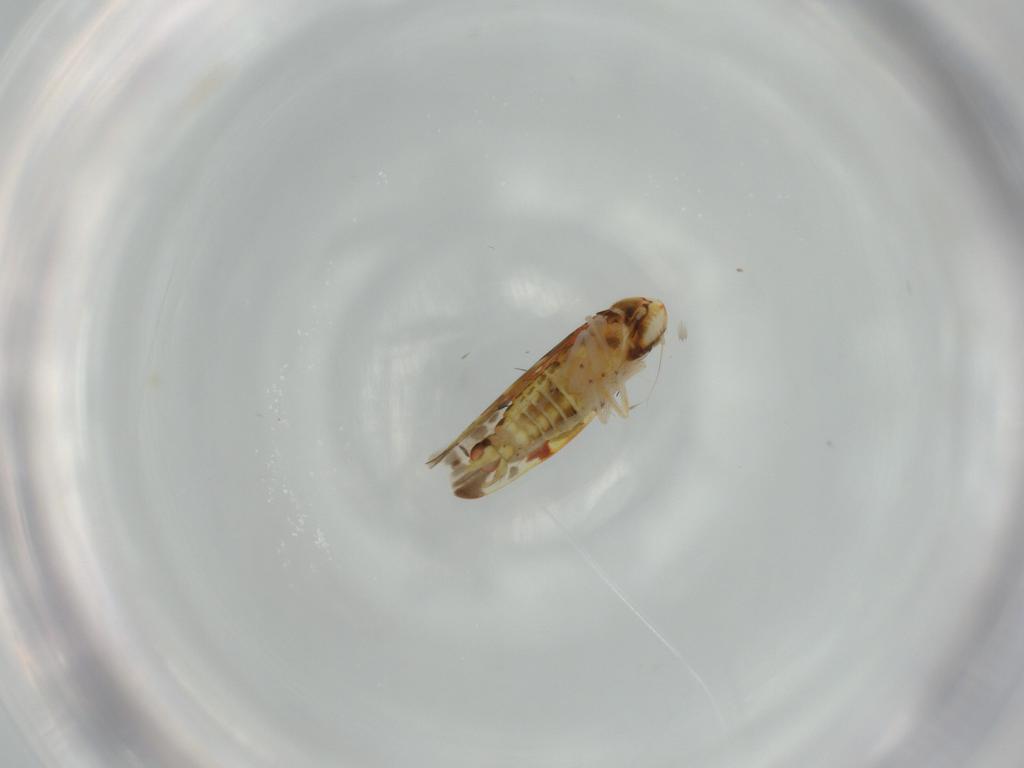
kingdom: Animalia
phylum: Arthropoda
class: Insecta
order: Hemiptera
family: Cicadellidae
